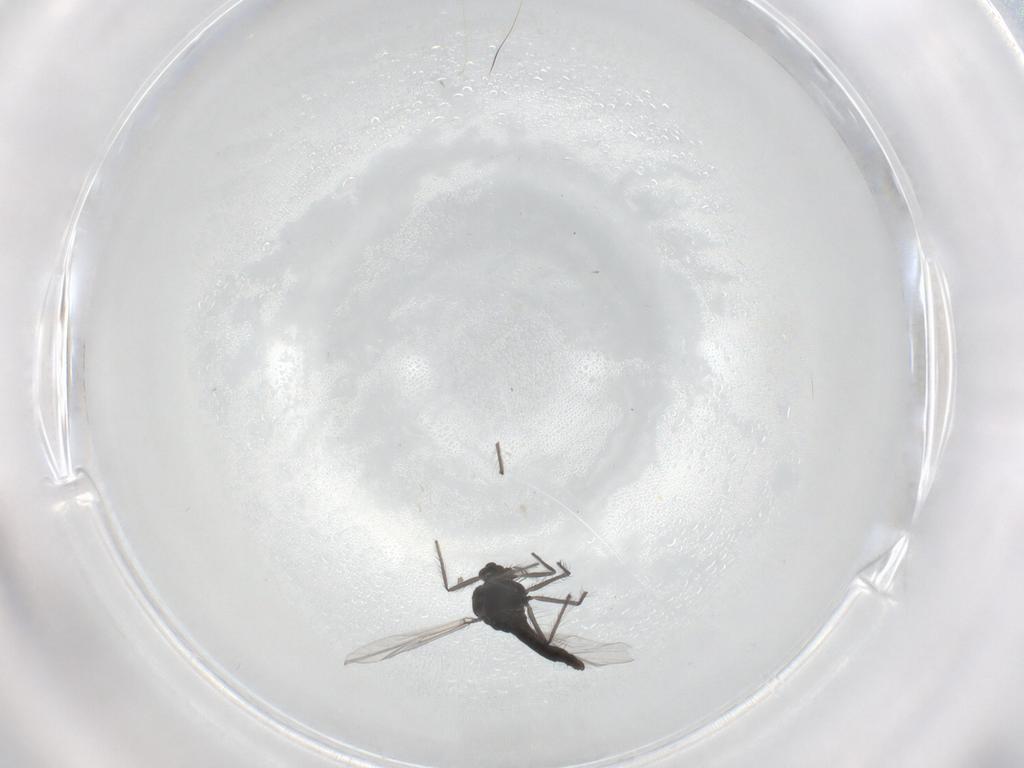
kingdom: Animalia
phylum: Arthropoda
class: Insecta
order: Diptera
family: Chironomidae
